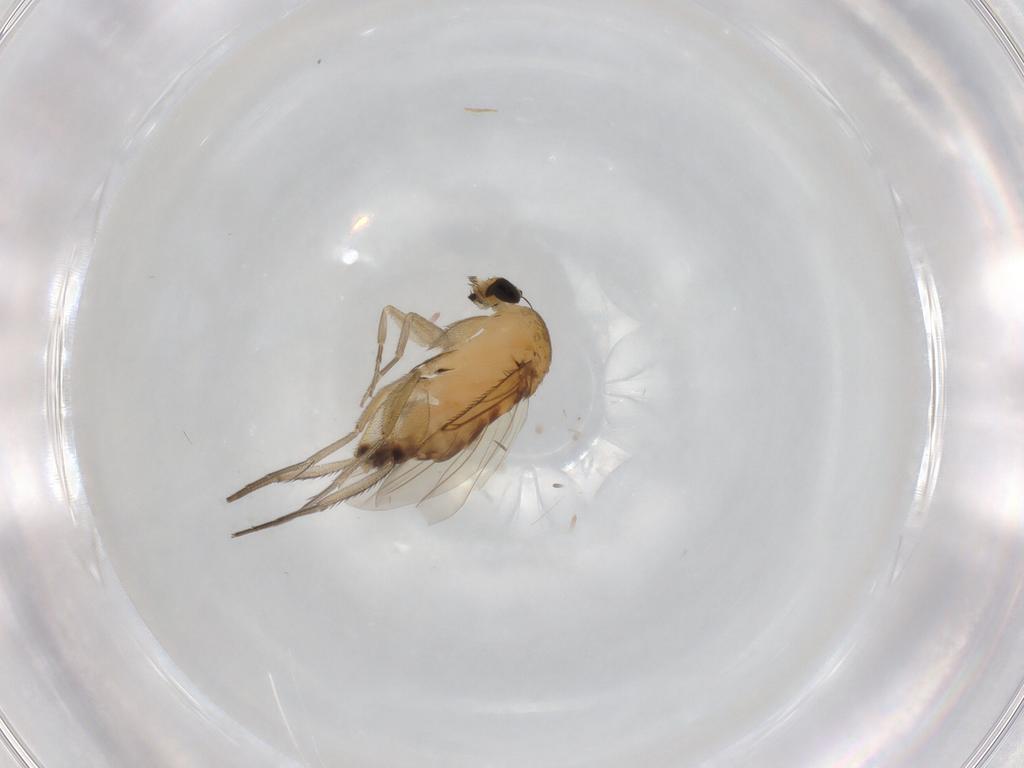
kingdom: Animalia
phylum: Arthropoda
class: Insecta
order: Diptera
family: Phoridae
